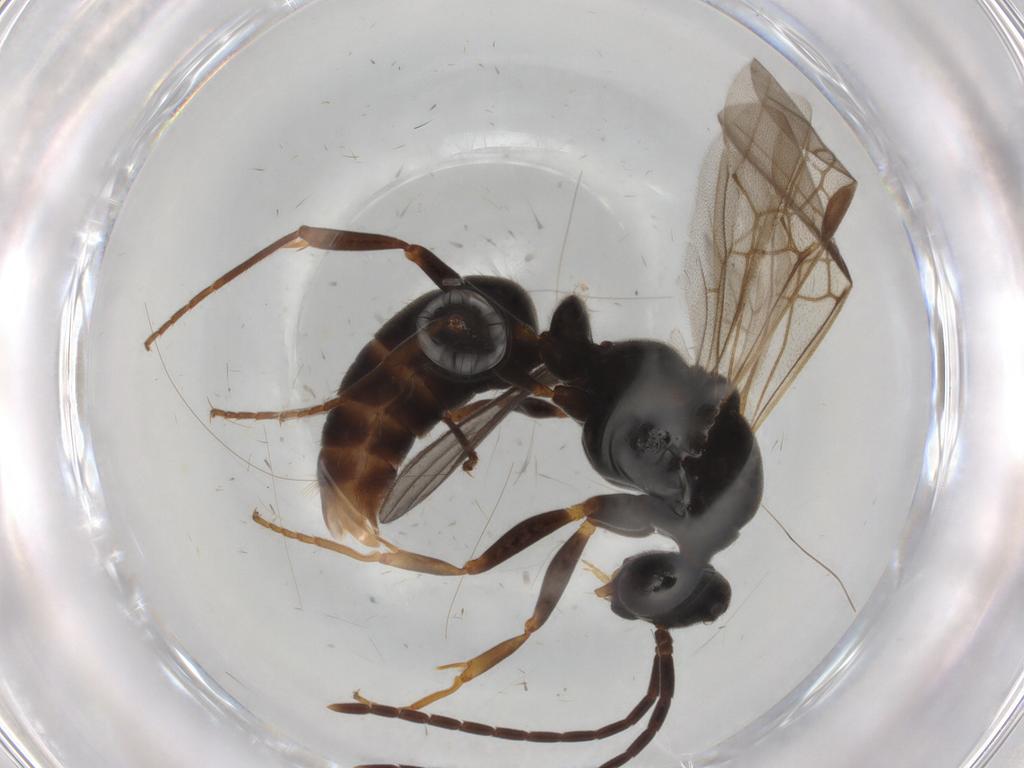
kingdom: Animalia
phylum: Arthropoda
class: Insecta
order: Hymenoptera
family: Formicidae
